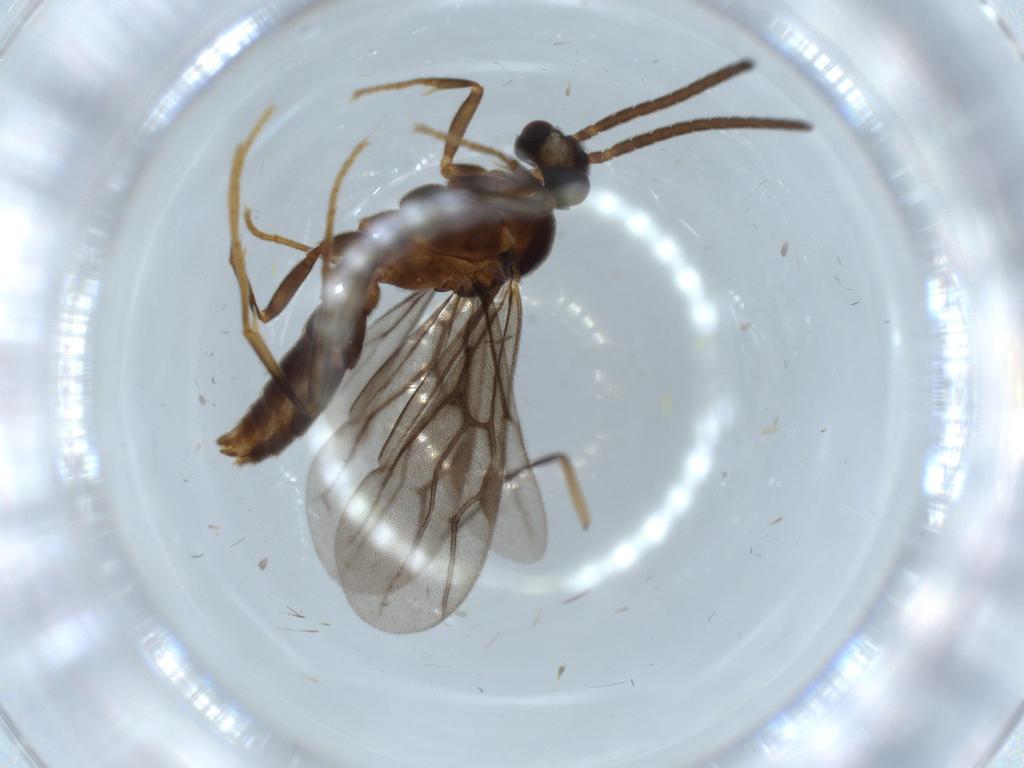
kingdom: Animalia
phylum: Arthropoda
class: Insecta
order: Hymenoptera
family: Formicidae
